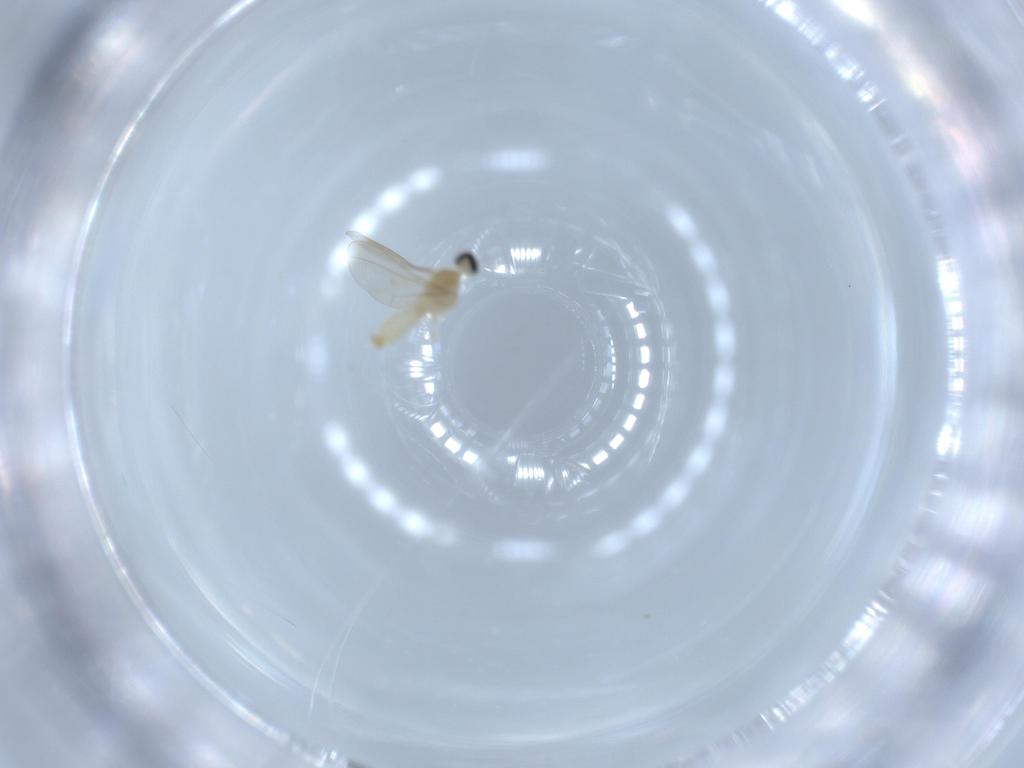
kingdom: Animalia
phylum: Arthropoda
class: Insecta
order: Diptera
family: Cecidomyiidae
